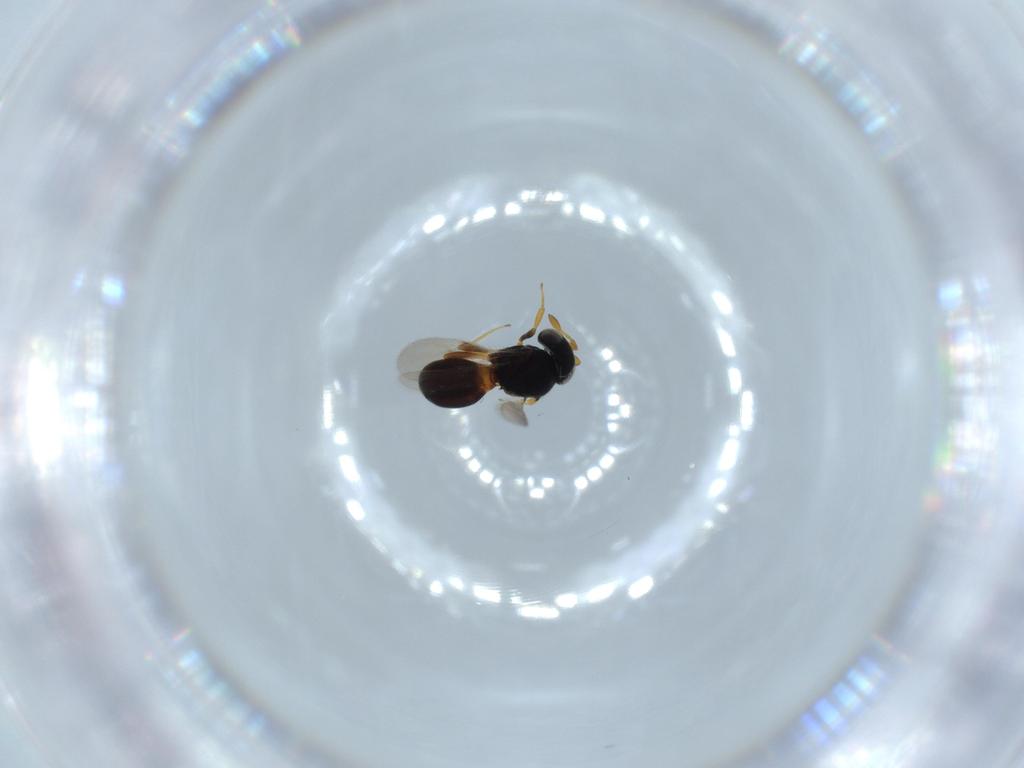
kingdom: Animalia
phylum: Arthropoda
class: Insecta
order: Hymenoptera
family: Scelionidae
